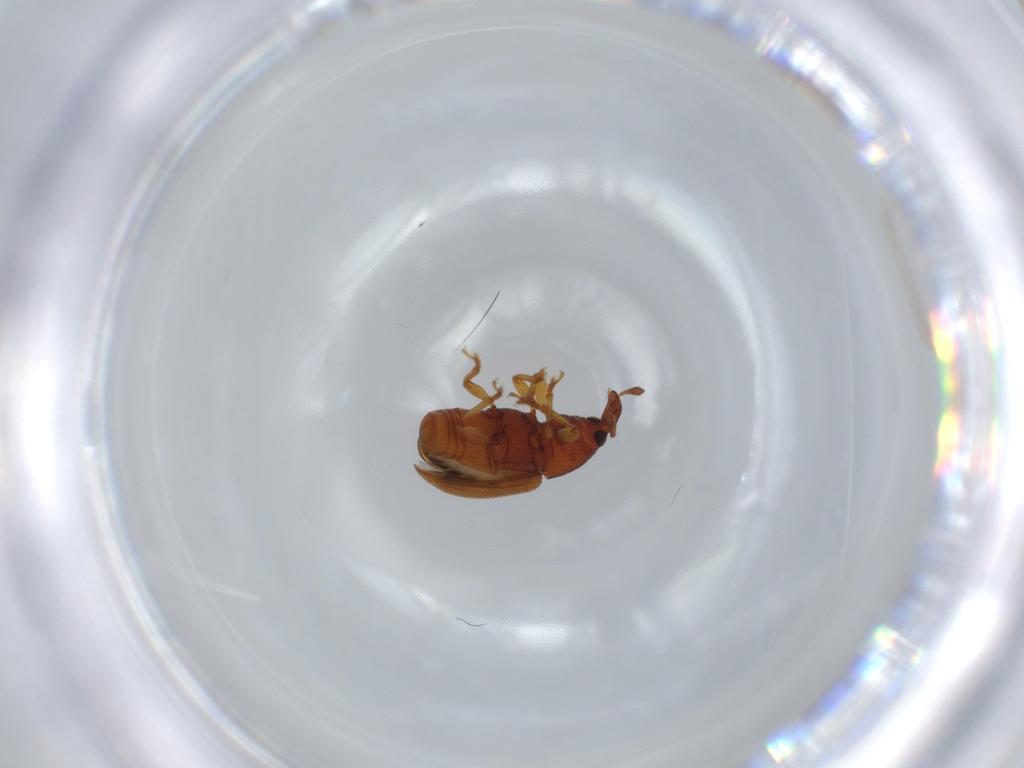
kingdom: Animalia
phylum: Arthropoda
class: Insecta
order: Coleoptera
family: Curculionidae
